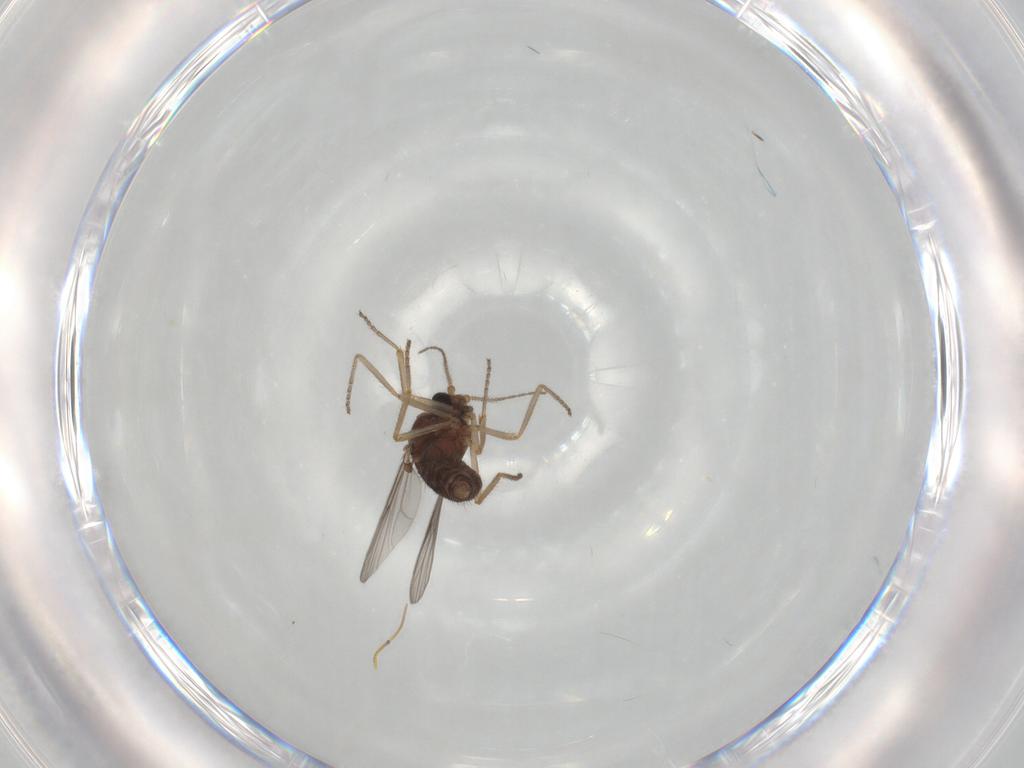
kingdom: Animalia
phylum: Arthropoda
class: Insecta
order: Diptera
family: Ceratopogonidae
